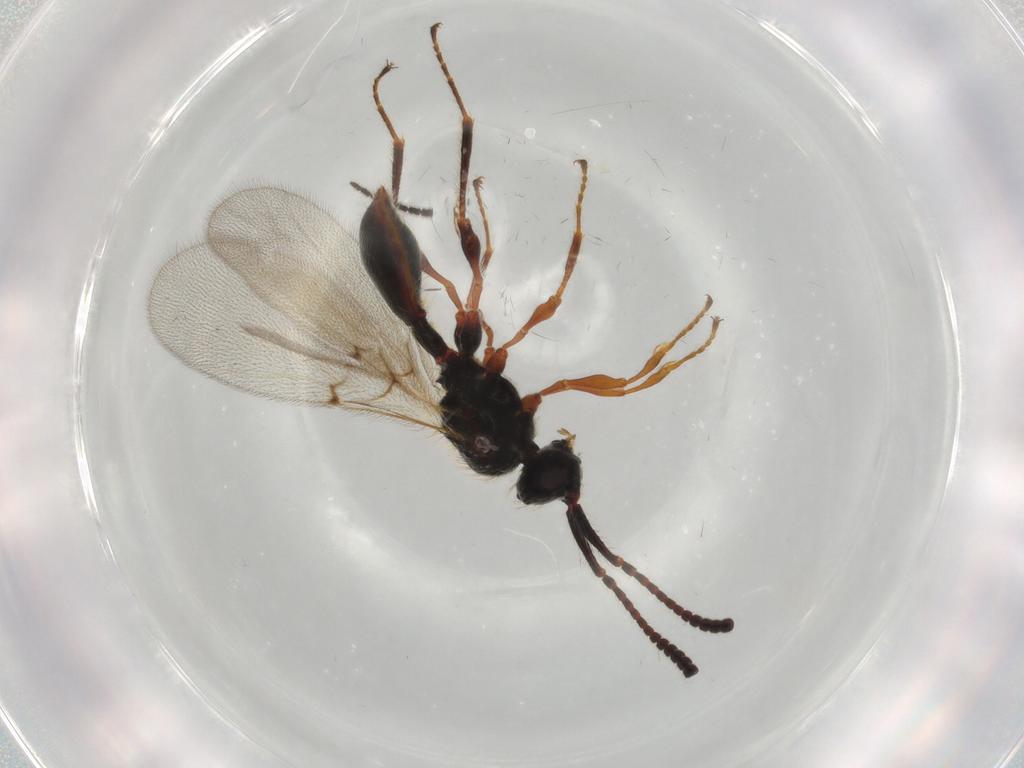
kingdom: Animalia
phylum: Arthropoda
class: Insecta
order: Hymenoptera
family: Diapriidae
